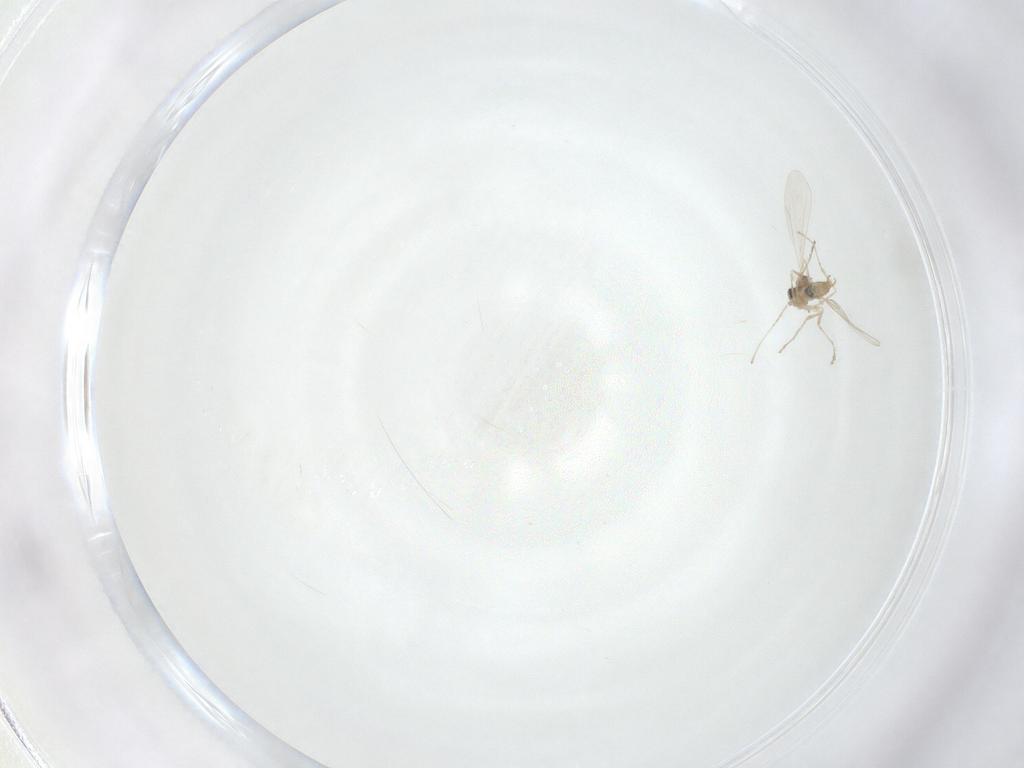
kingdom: Animalia
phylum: Arthropoda
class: Insecta
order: Diptera
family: Cecidomyiidae
